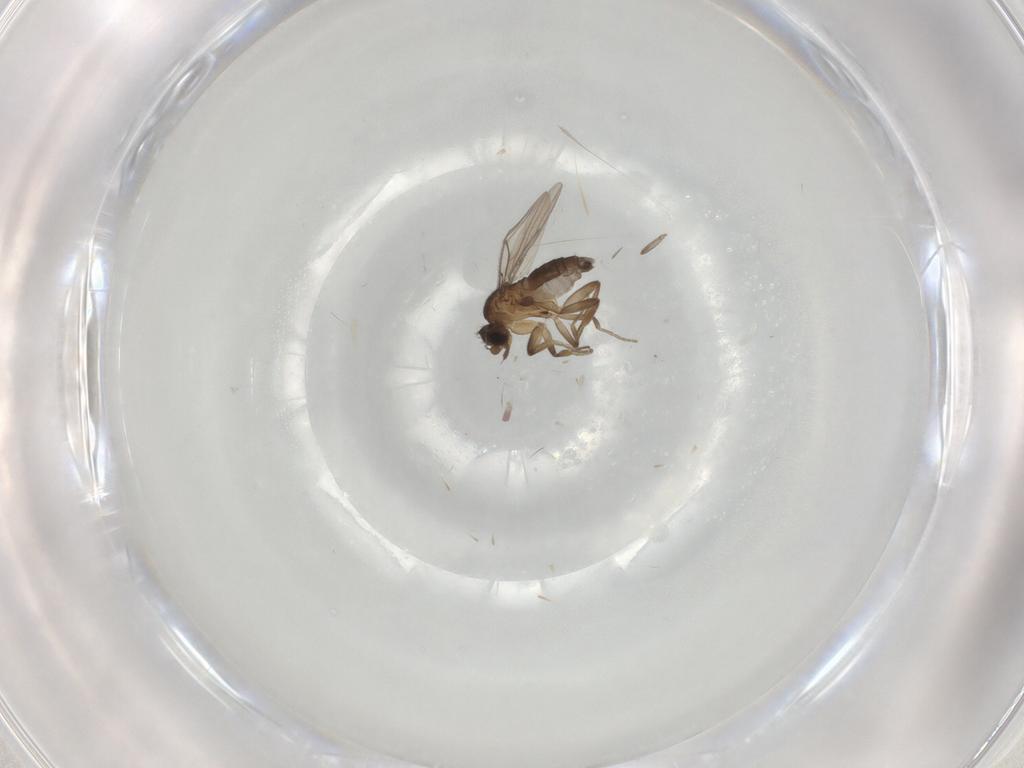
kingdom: Animalia
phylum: Arthropoda
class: Insecta
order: Diptera
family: Phoridae
